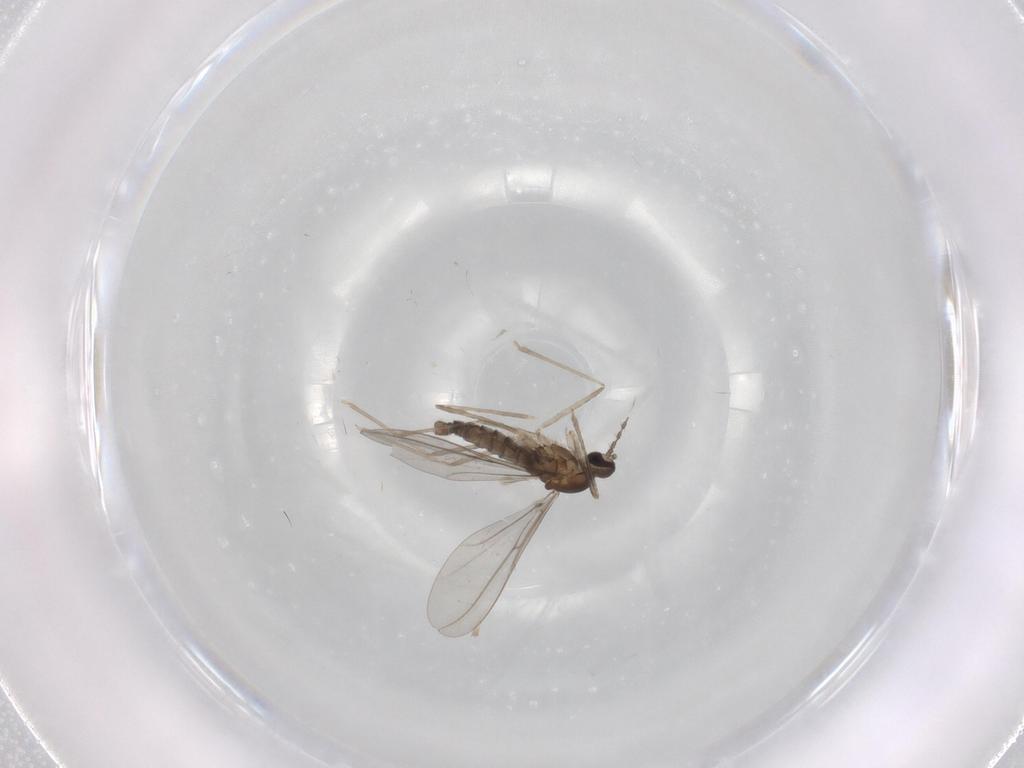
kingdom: Animalia
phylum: Arthropoda
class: Insecta
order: Diptera
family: Cecidomyiidae
